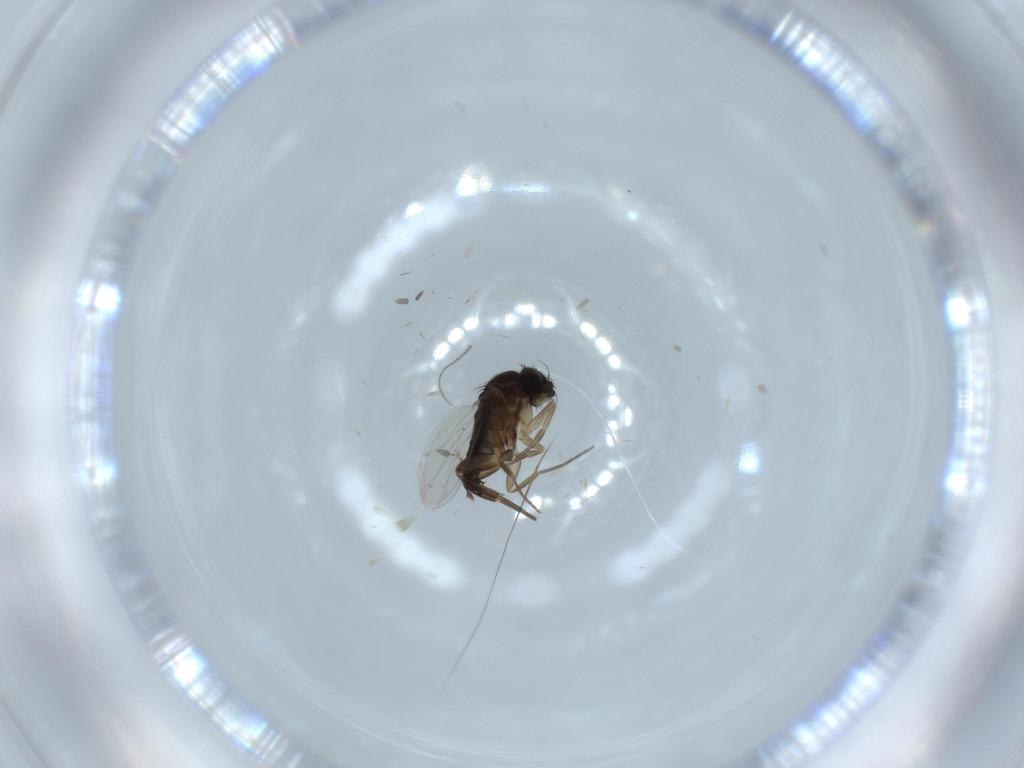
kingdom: Animalia
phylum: Arthropoda
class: Insecta
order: Diptera
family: Phoridae
